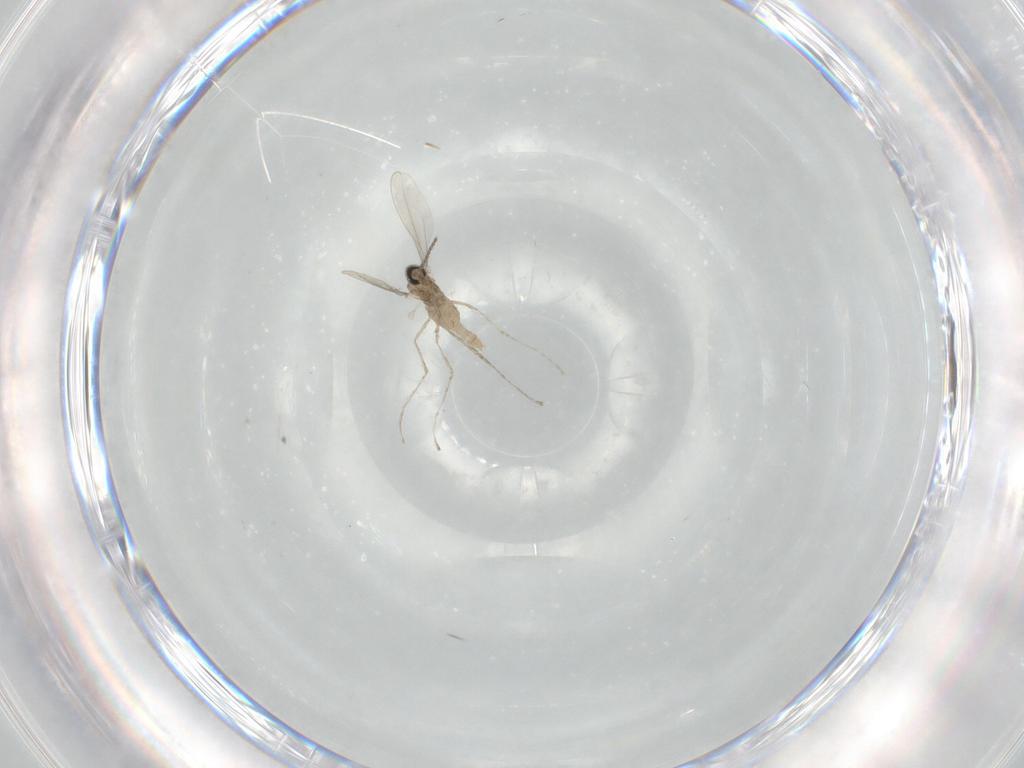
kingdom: Animalia
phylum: Arthropoda
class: Insecta
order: Diptera
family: Cecidomyiidae
